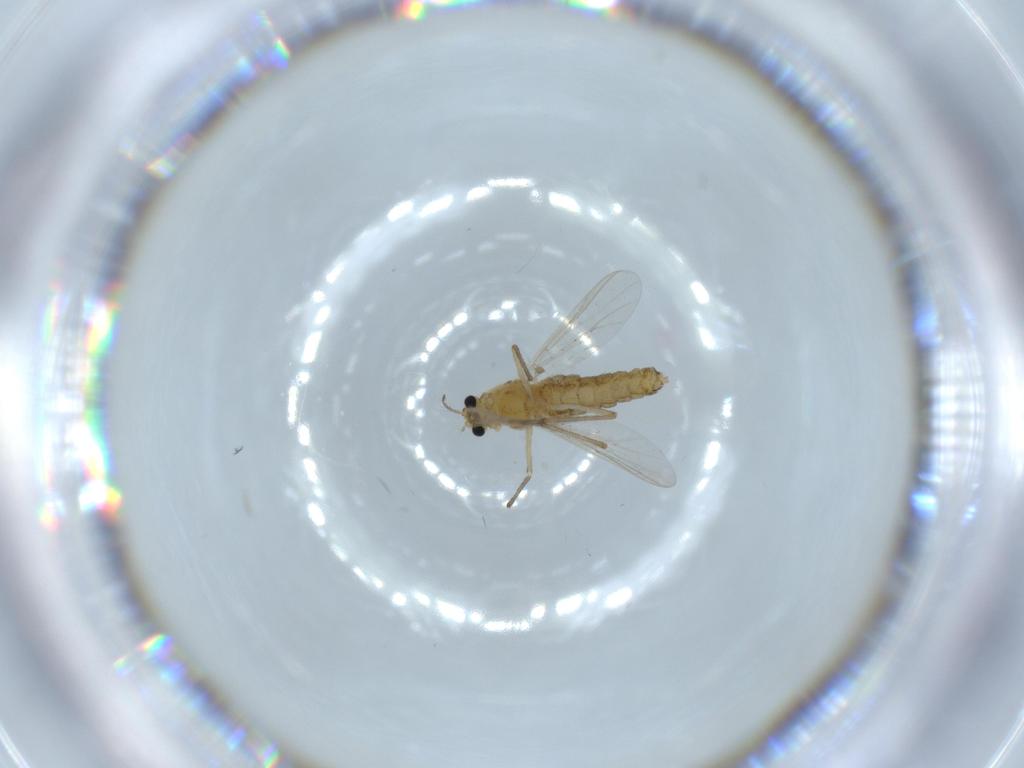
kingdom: Animalia
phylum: Arthropoda
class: Insecta
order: Diptera
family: Chironomidae
